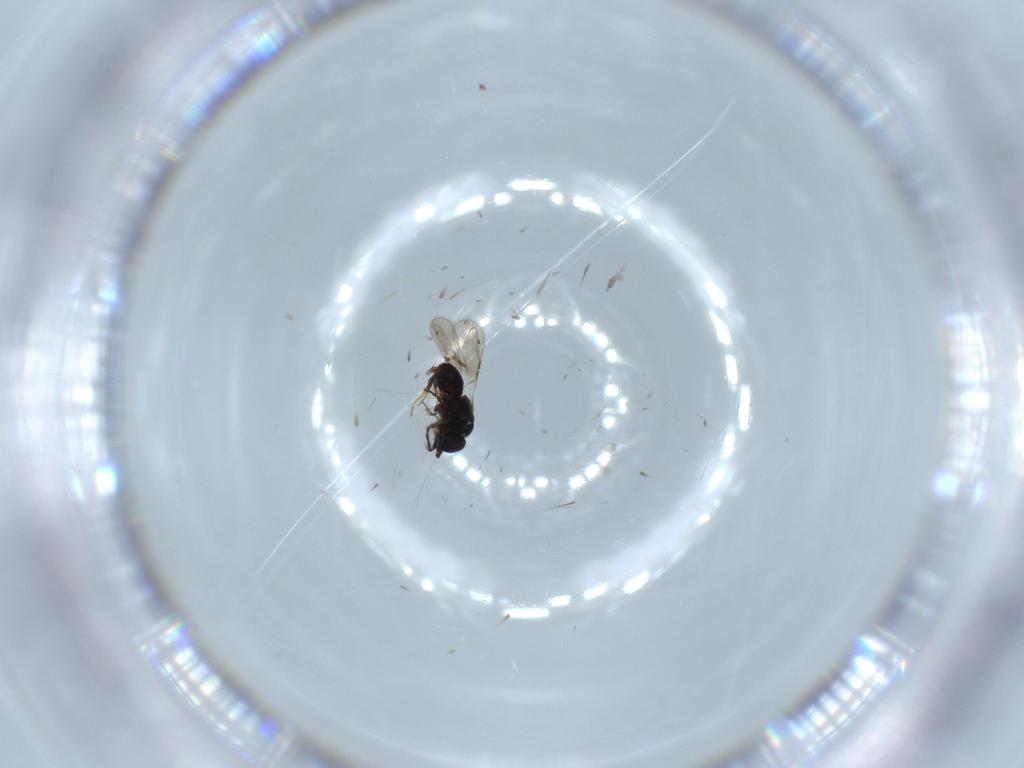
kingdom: Animalia
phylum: Arthropoda
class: Insecta
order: Hymenoptera
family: Ceraphronidae
